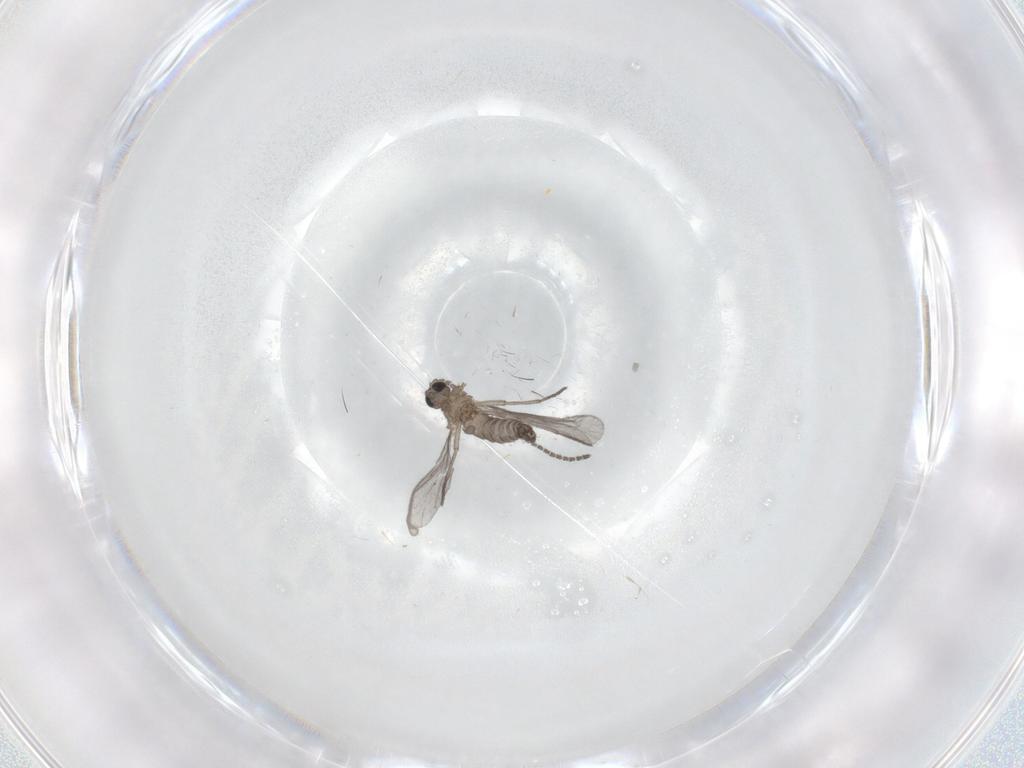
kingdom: Animalia
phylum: Arthropoda
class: Insecta
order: Diptera
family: Sciaridae
